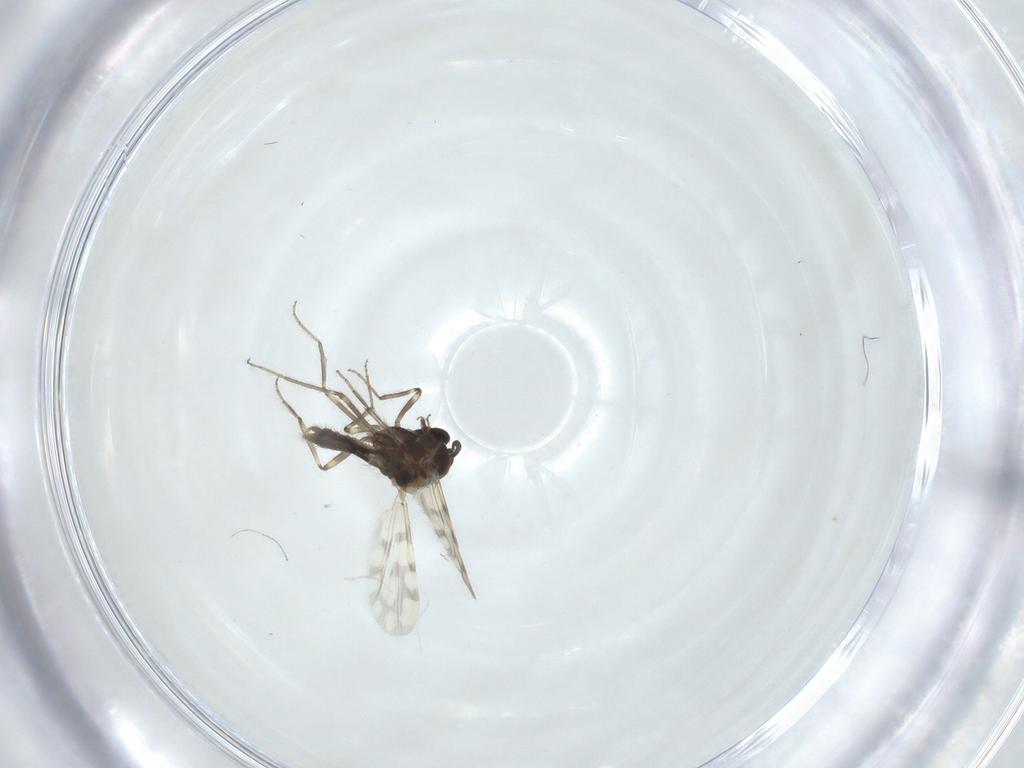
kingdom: Animalia
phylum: Arthropoda
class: Insecta
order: Diptera
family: Ceratopogonidae
